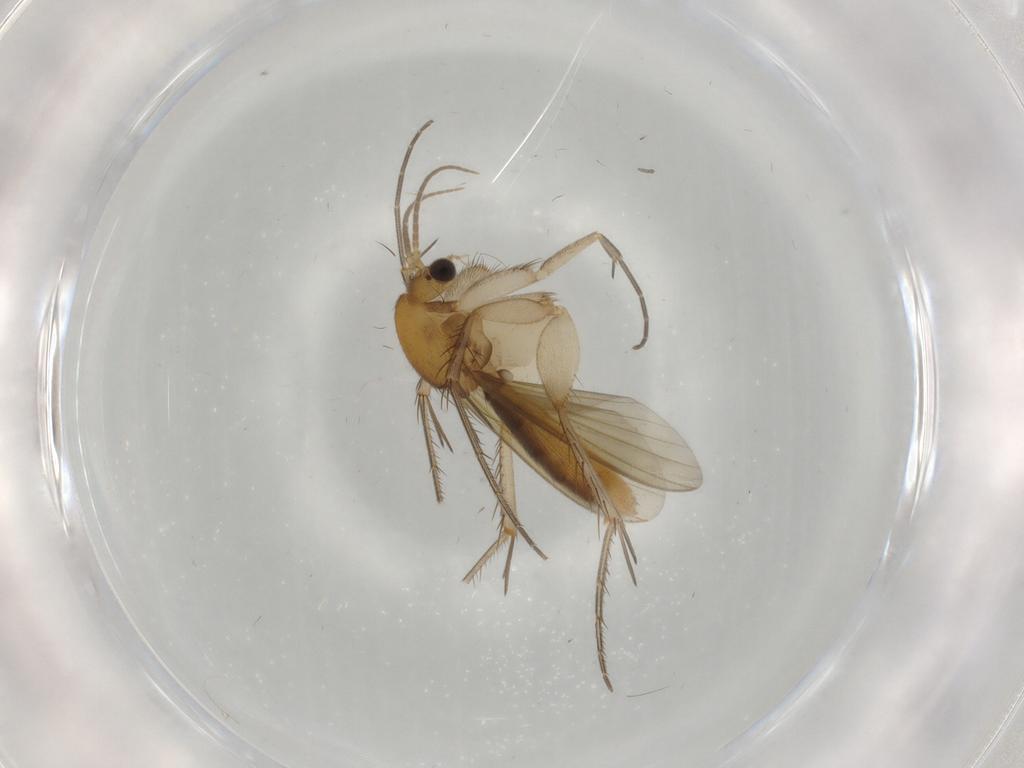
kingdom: Animalia
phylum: Arthropoda
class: Insecta
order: Diptera
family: Mycetophilidae
